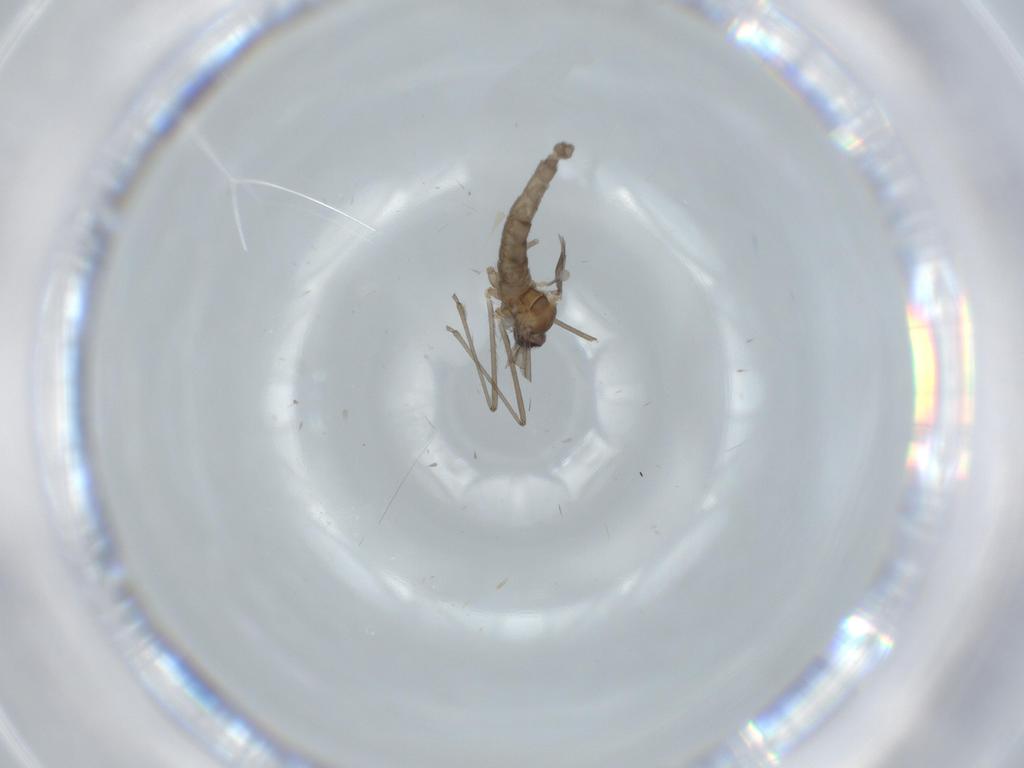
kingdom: Animalia
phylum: Arthropoda
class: Insecta
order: Diptera
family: Cecidomyiidae
